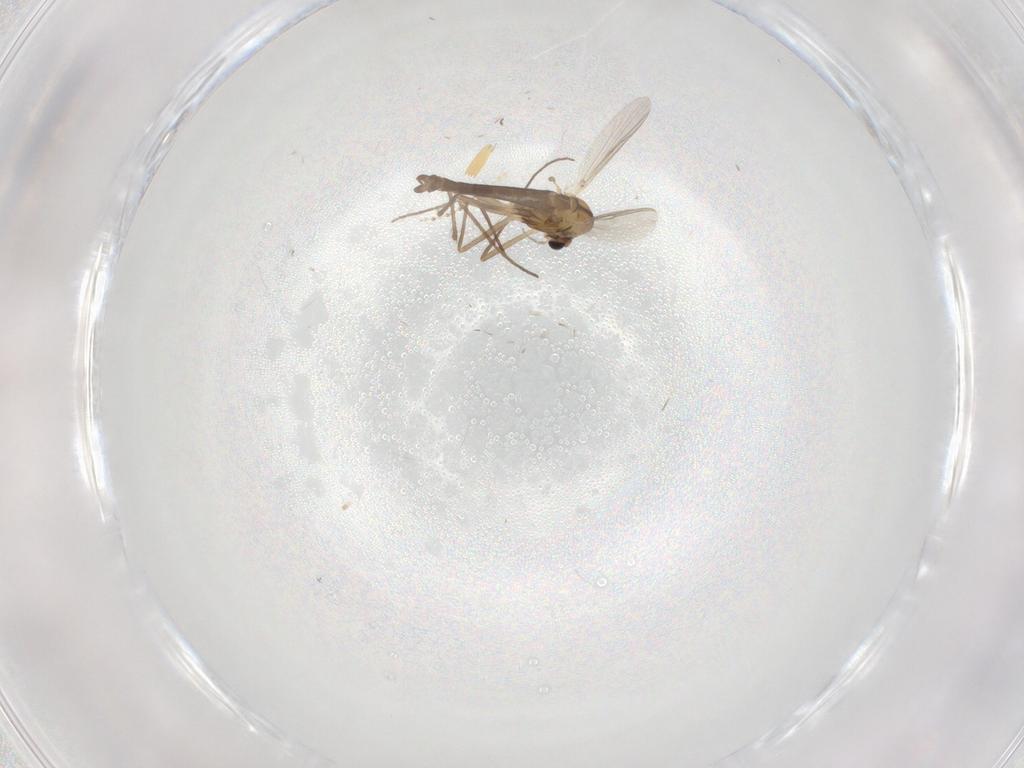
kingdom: Animalia
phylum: Arthropoda
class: Insecta
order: Diptera
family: Chironomidae
